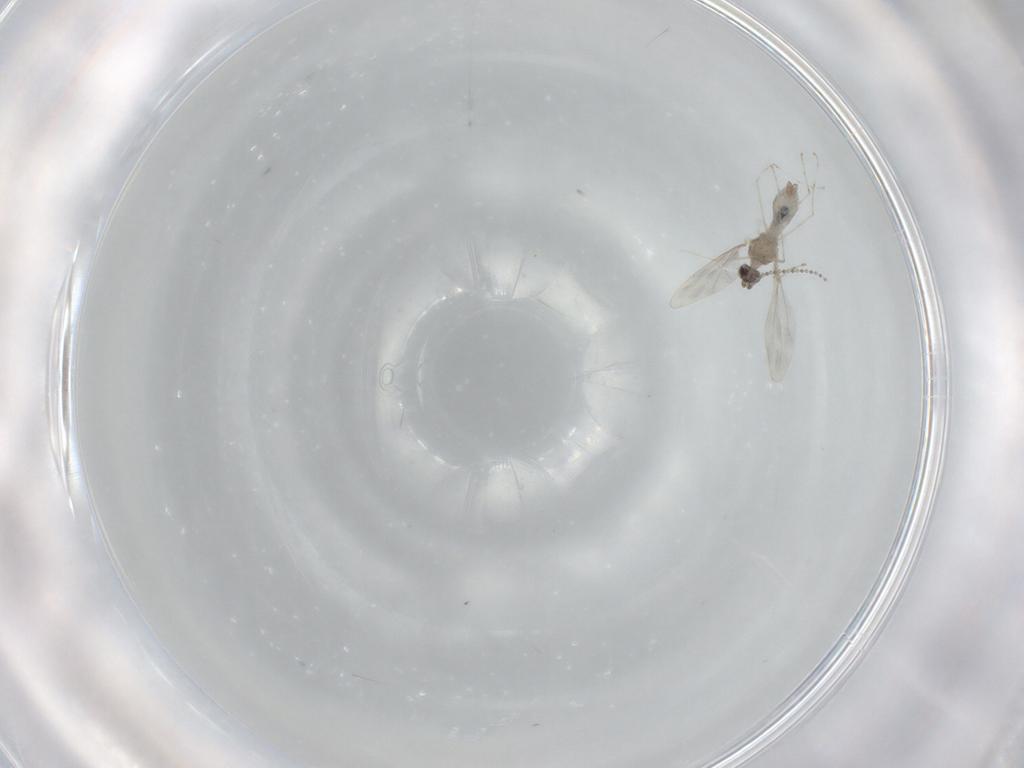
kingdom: Animalia
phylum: Arthropoda
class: Insecta
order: Diptera
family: Cecidomyiidae
